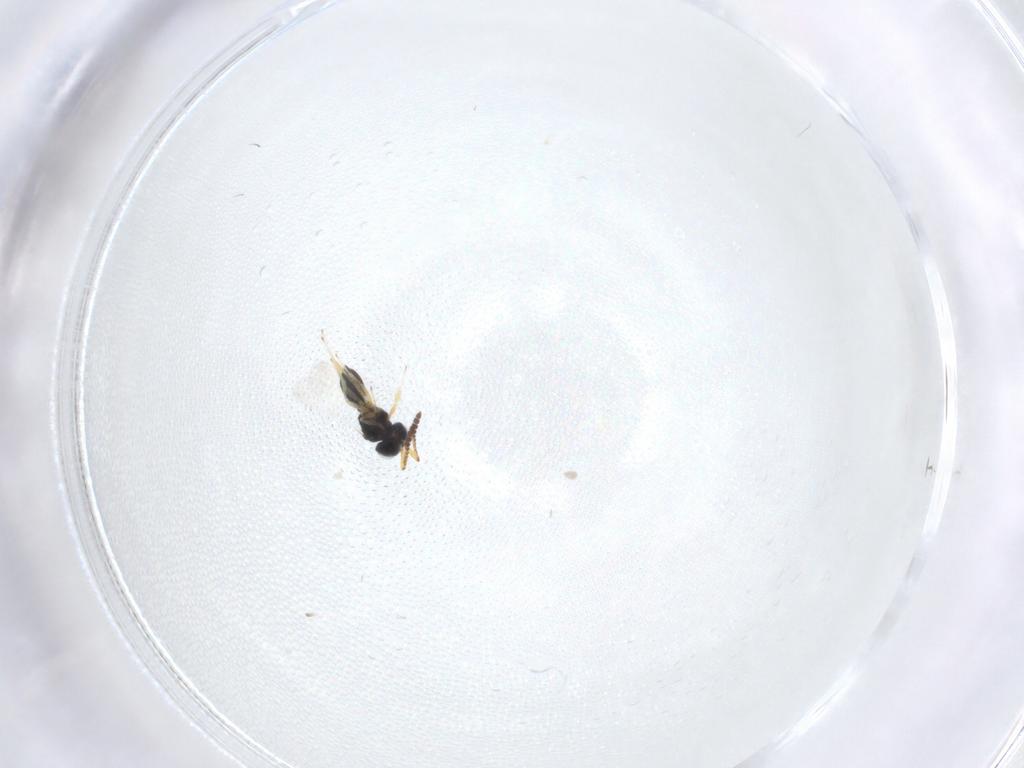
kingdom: Animalia
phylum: Arthropoda
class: Insecta
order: Hymenoptera
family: Scelionidae
